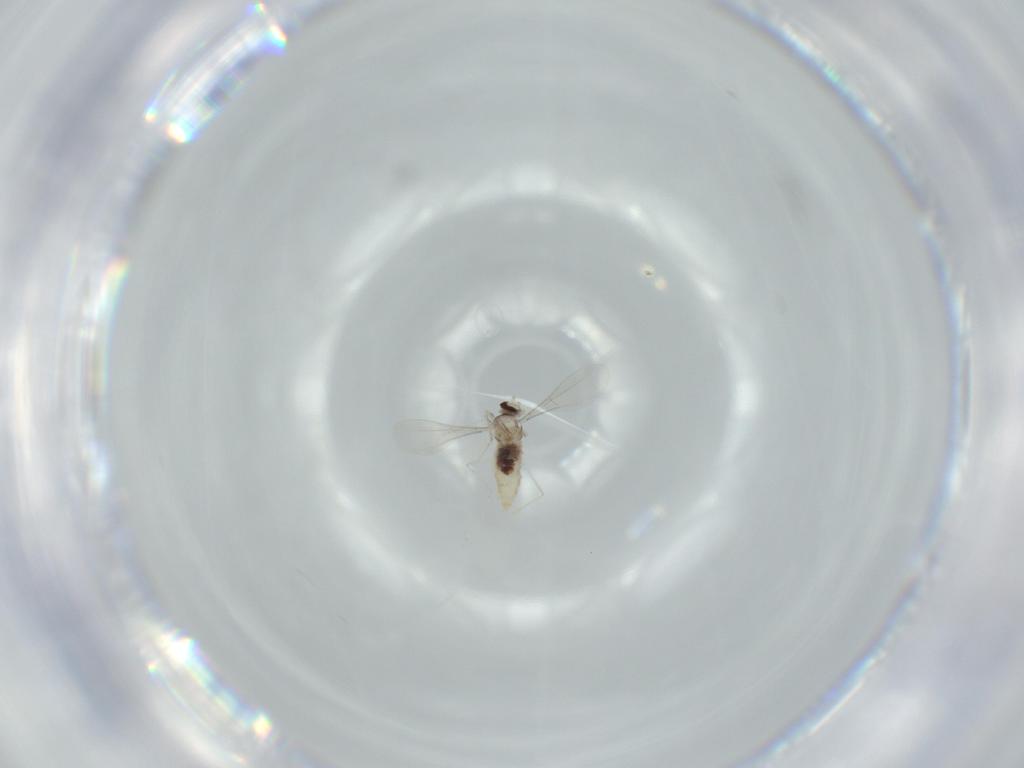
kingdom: Animalia
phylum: Arthropoda
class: Insecta
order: Diptera
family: Cecidomyiidae
